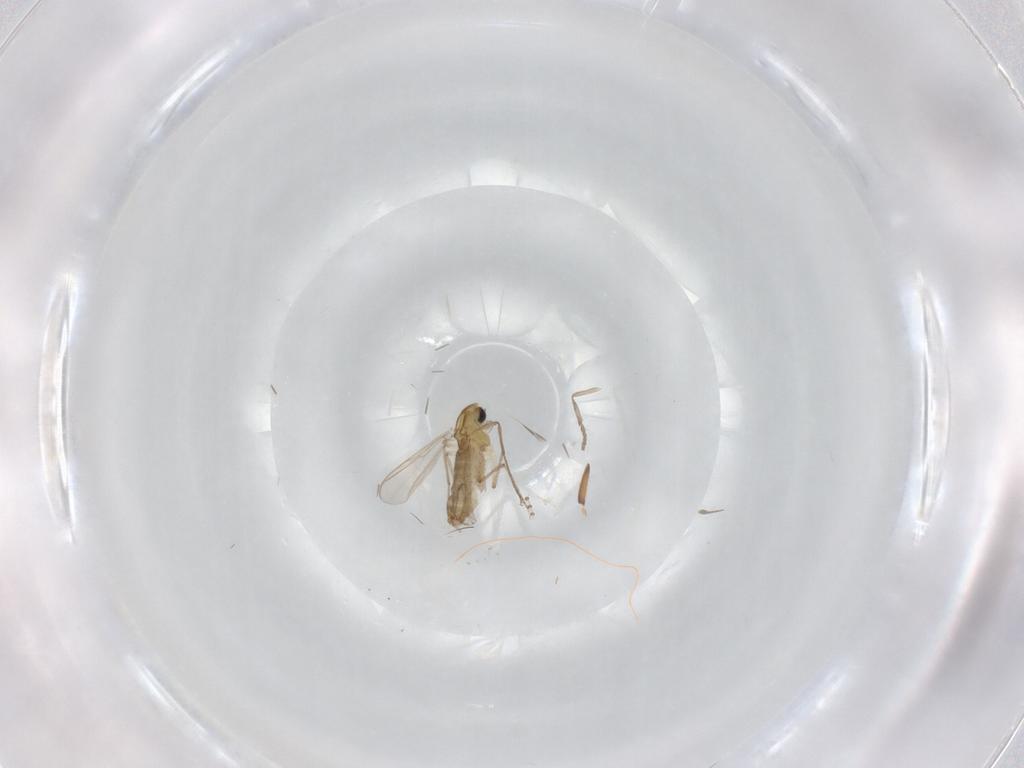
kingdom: Animalia
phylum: Arthropoda
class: Insecta
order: Diptera
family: Chironomidae
